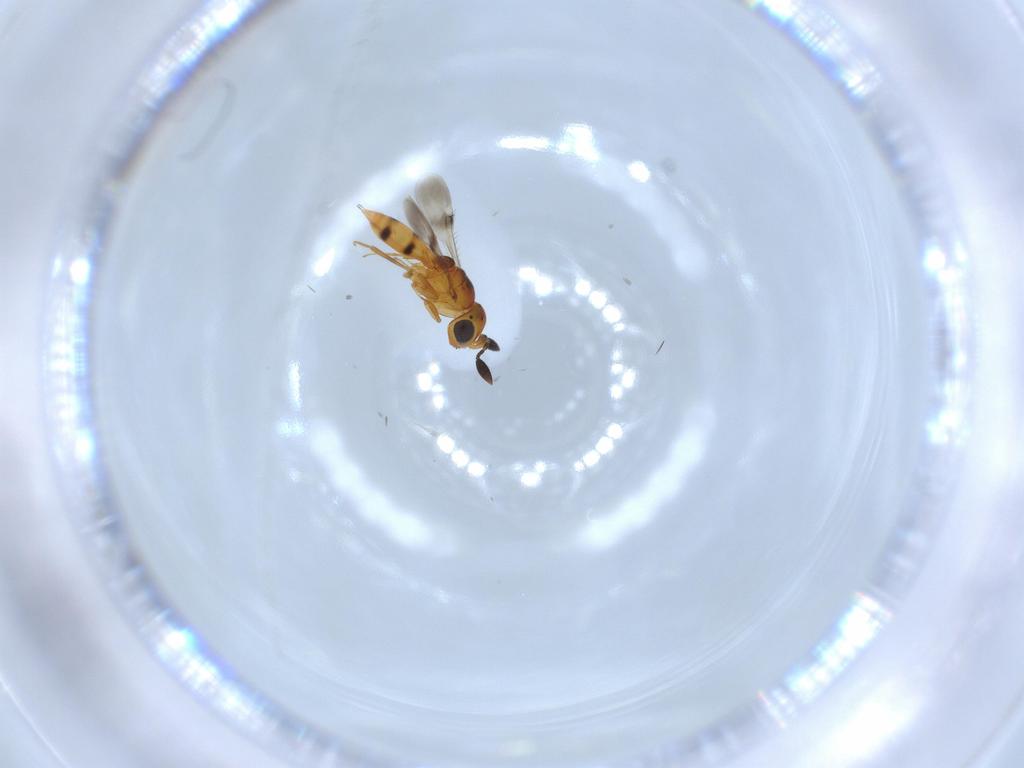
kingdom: Animalia
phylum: Arthropoda
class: Insecta
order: Hymenoptera
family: Scelionidae
